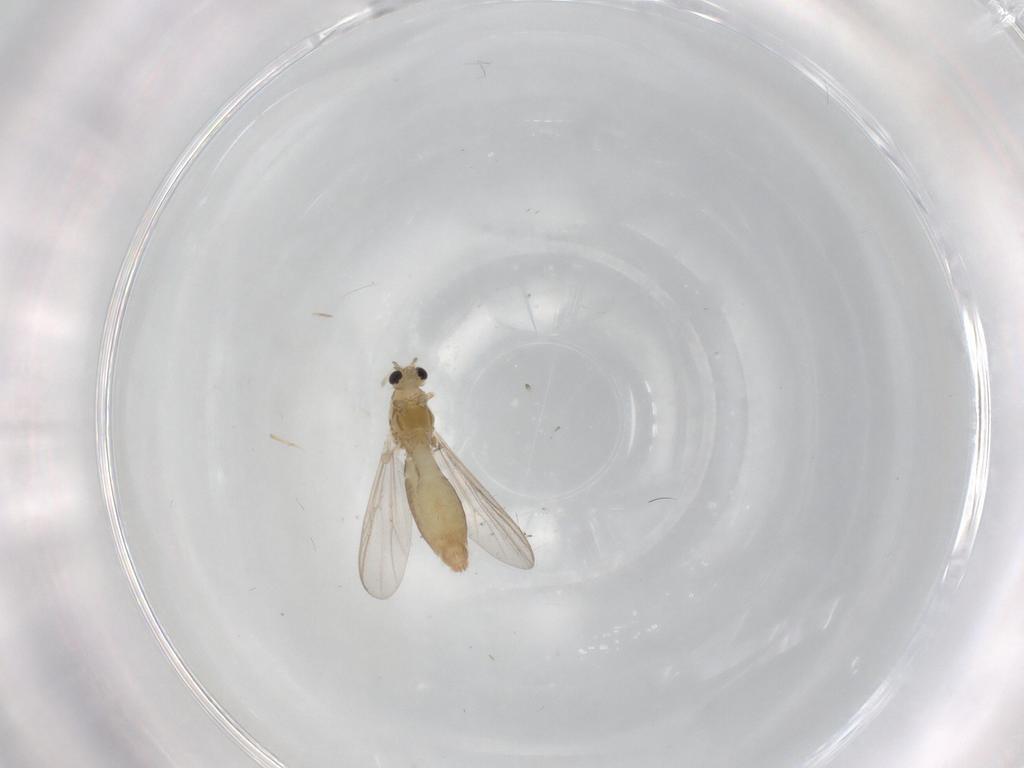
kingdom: Animalia
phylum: Arthropoda
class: Insecta
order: Diptera
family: Chironomidae
